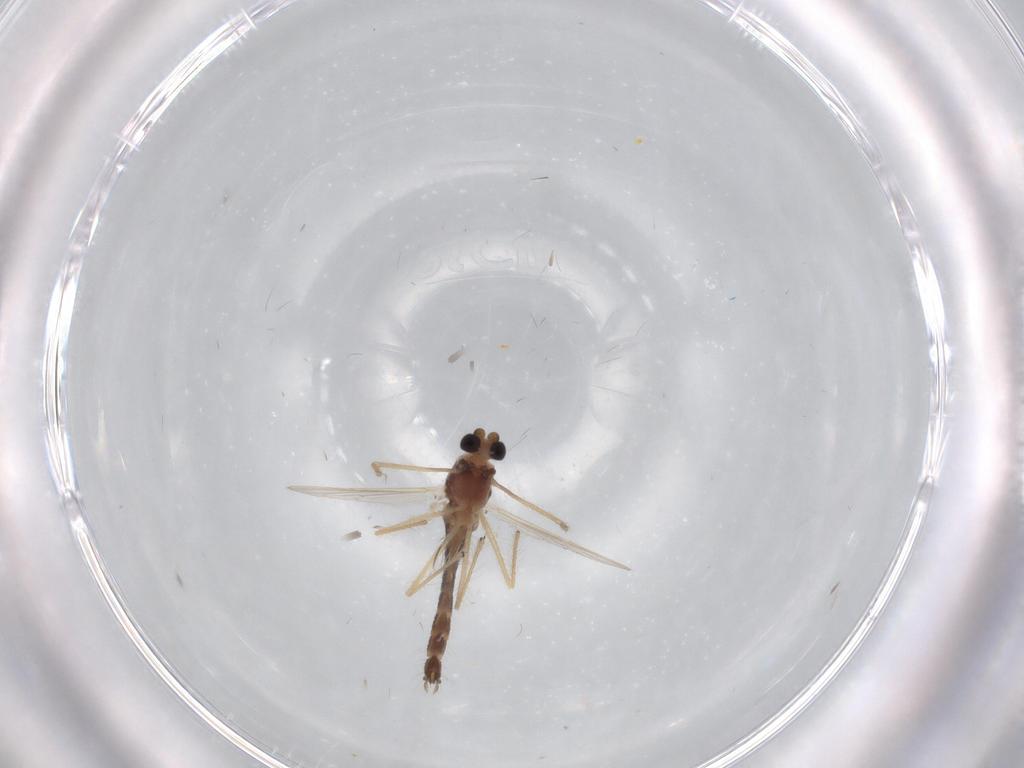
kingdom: Animalia
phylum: Arthropoda
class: Insecta
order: Diptera
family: Chironomidae
